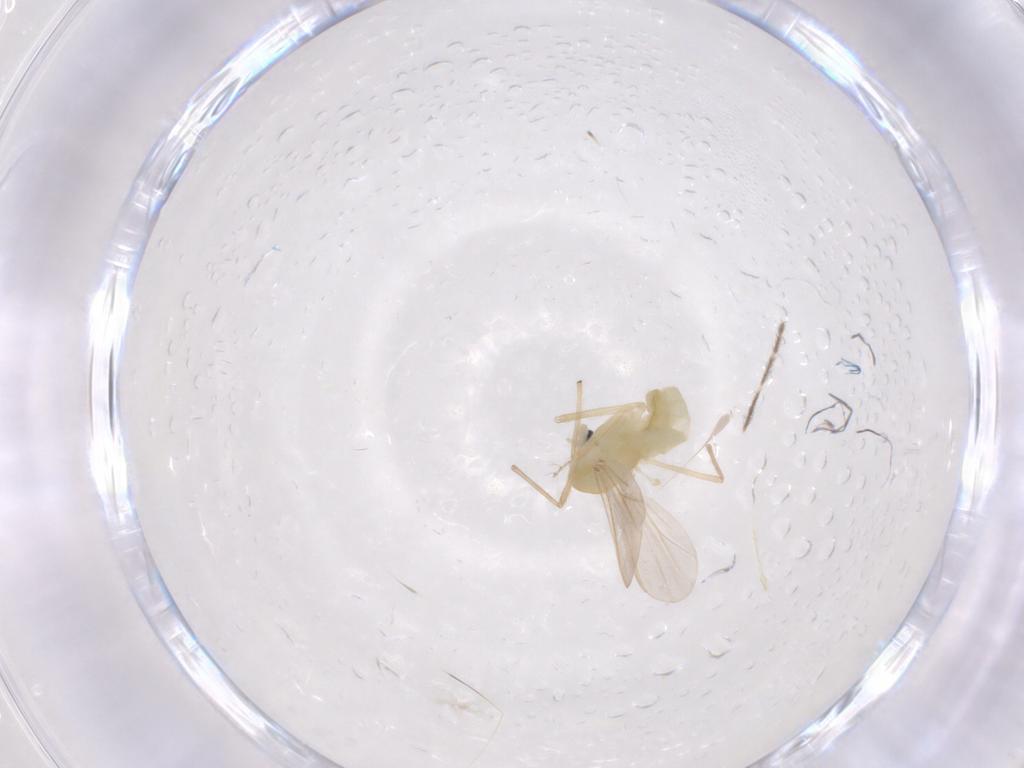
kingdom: Animalia
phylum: Arthropoda
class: Insecta
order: Diptera
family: Chironomidae
